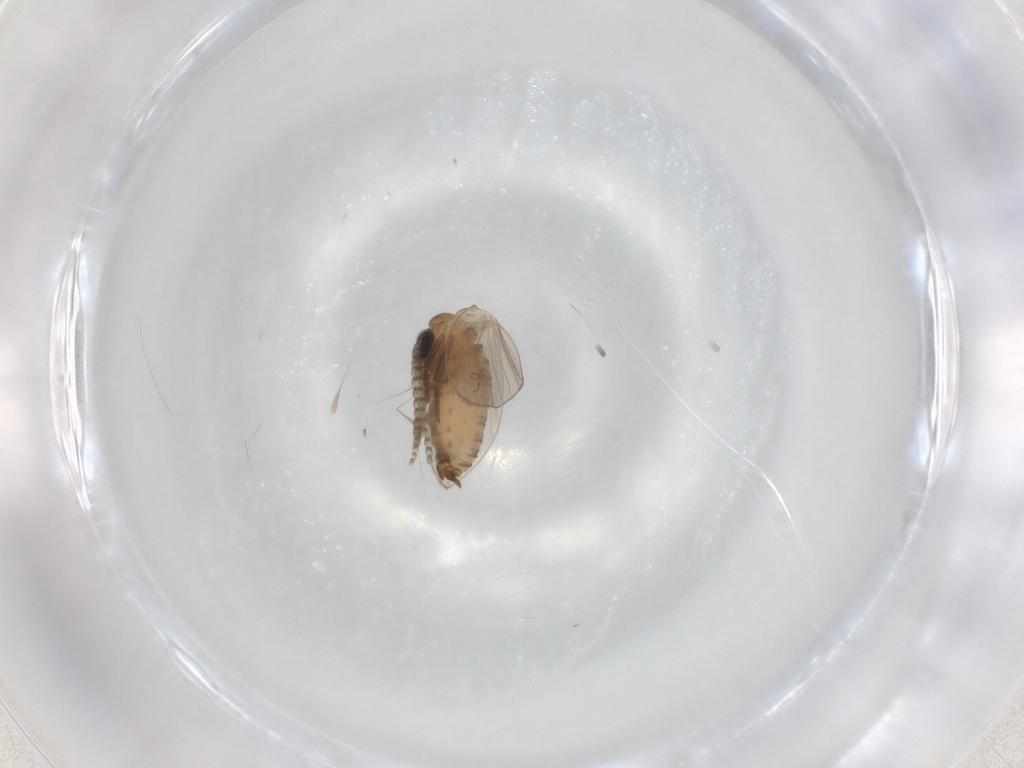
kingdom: Animalia
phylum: Arthropoda
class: Insecta
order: Diptera
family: Psychodidae
